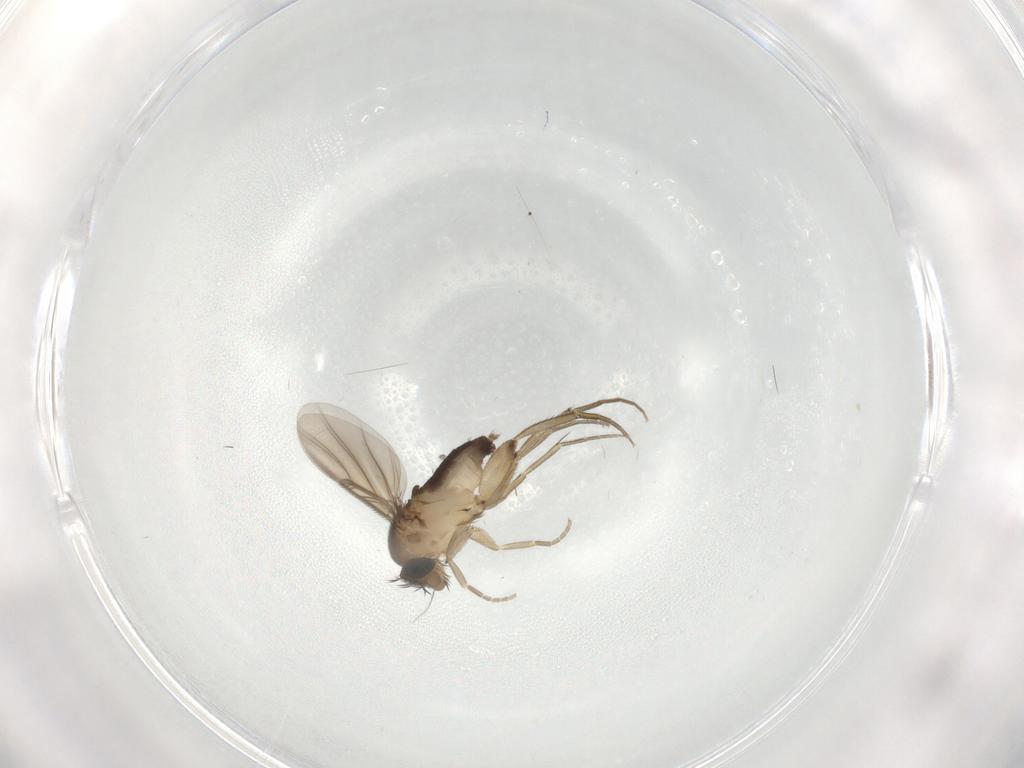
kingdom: Animalia
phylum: Arthropoda
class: Insecta
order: Diptera
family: Phoridae
